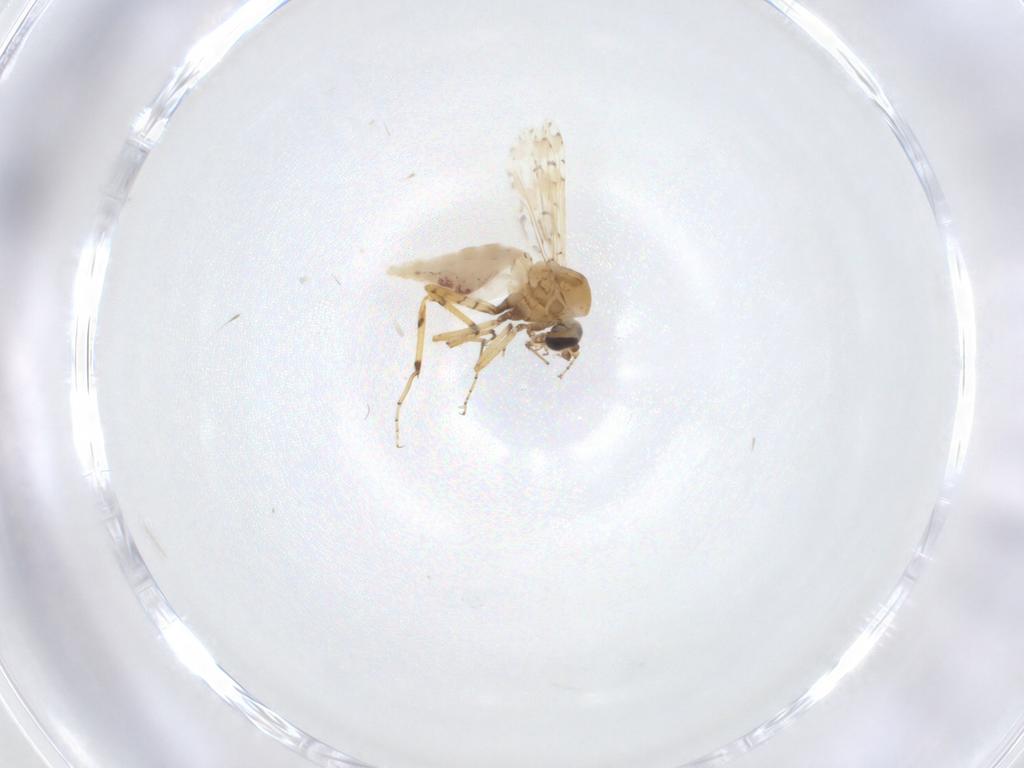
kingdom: Animalia
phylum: Arthropoda
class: Insecta
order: Diptera
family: Ceratopogonidae
